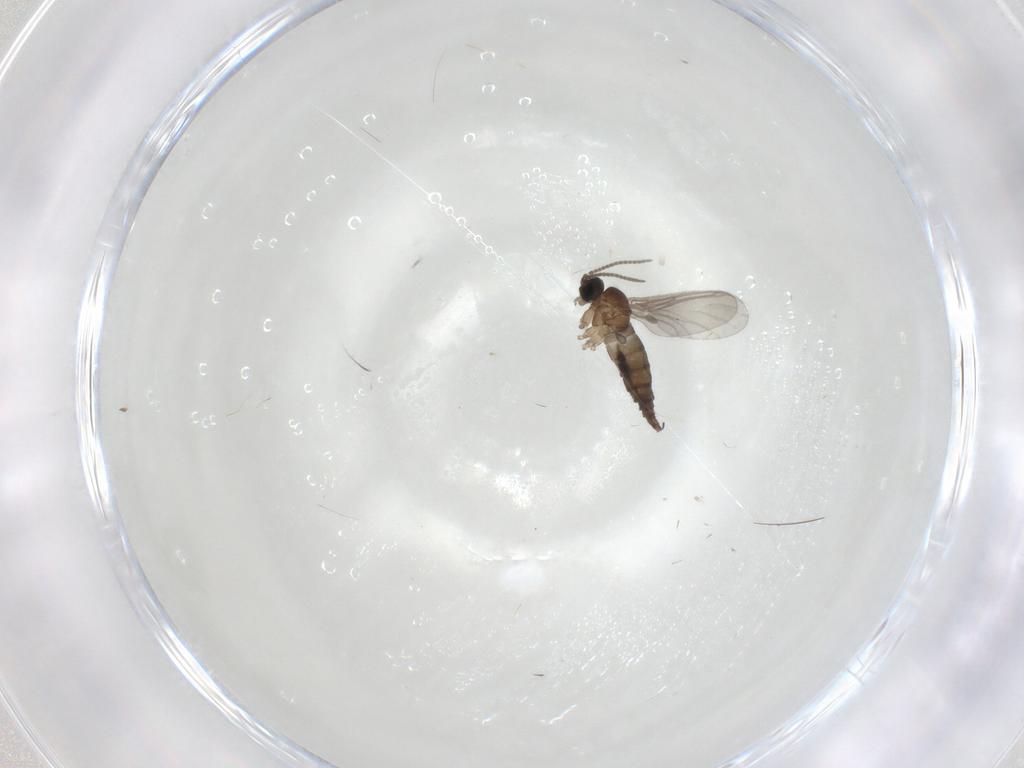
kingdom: Animalia
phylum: Arthropoda
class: Insecta
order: Diptera
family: Sciaridae
